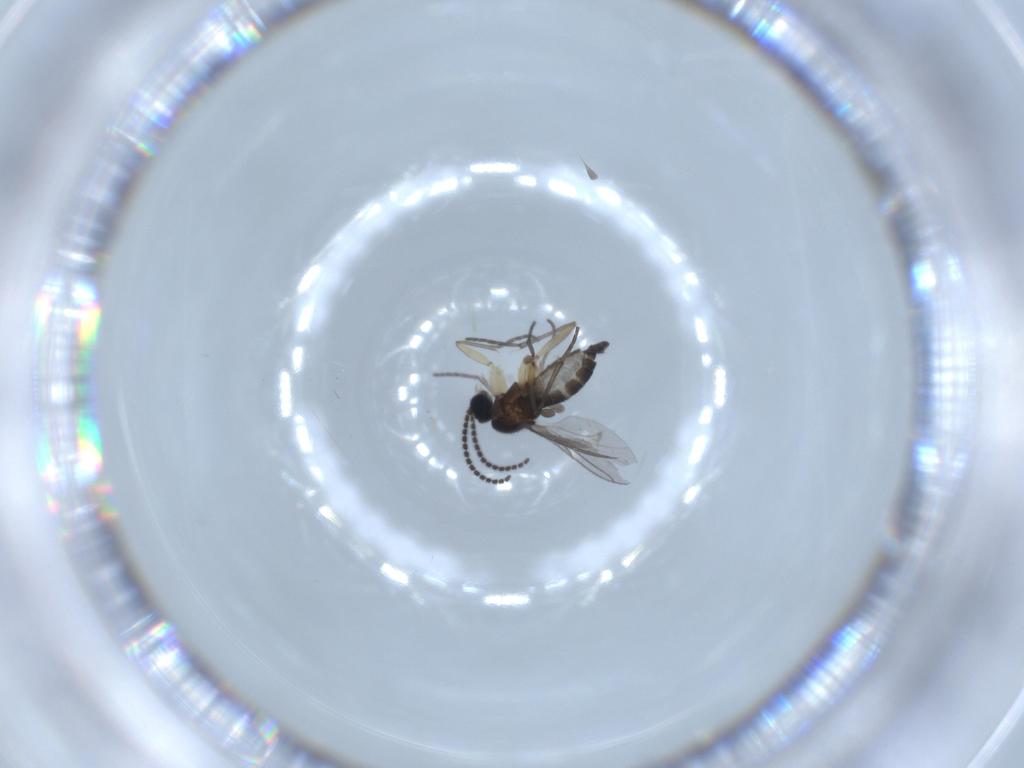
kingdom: Animalia
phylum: Arthropoda
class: Insecta
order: Diptera
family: Sciaridae
